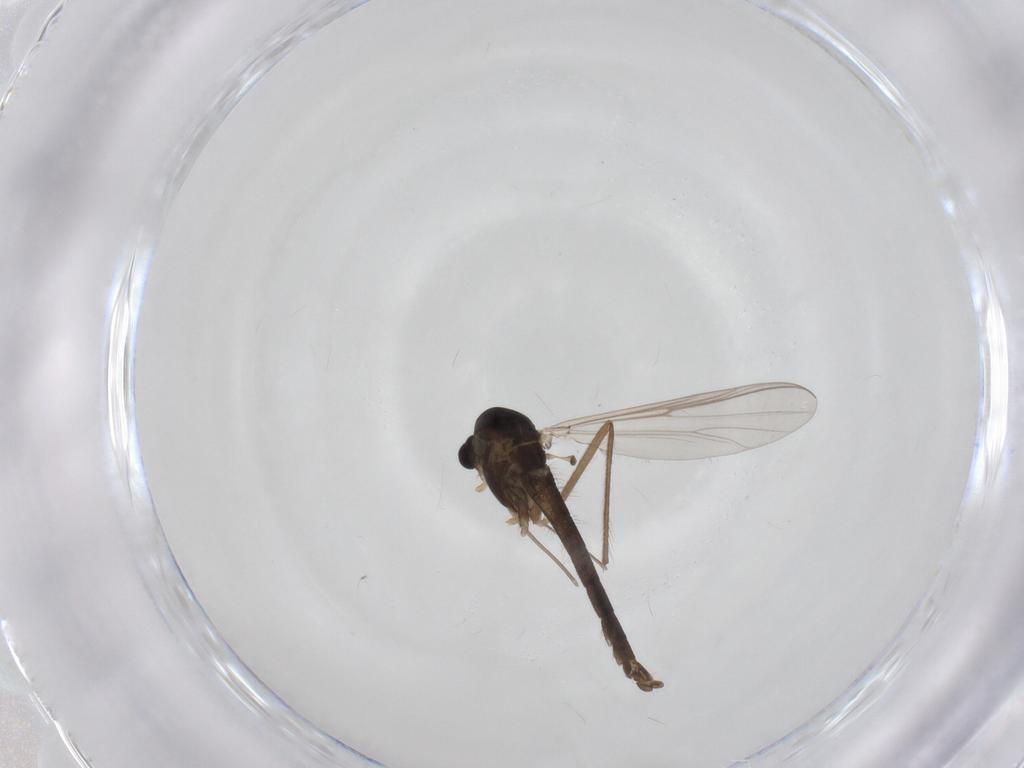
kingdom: Animalia
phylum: Arthropoda
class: Insecta
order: Diptera
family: Chironomidae
